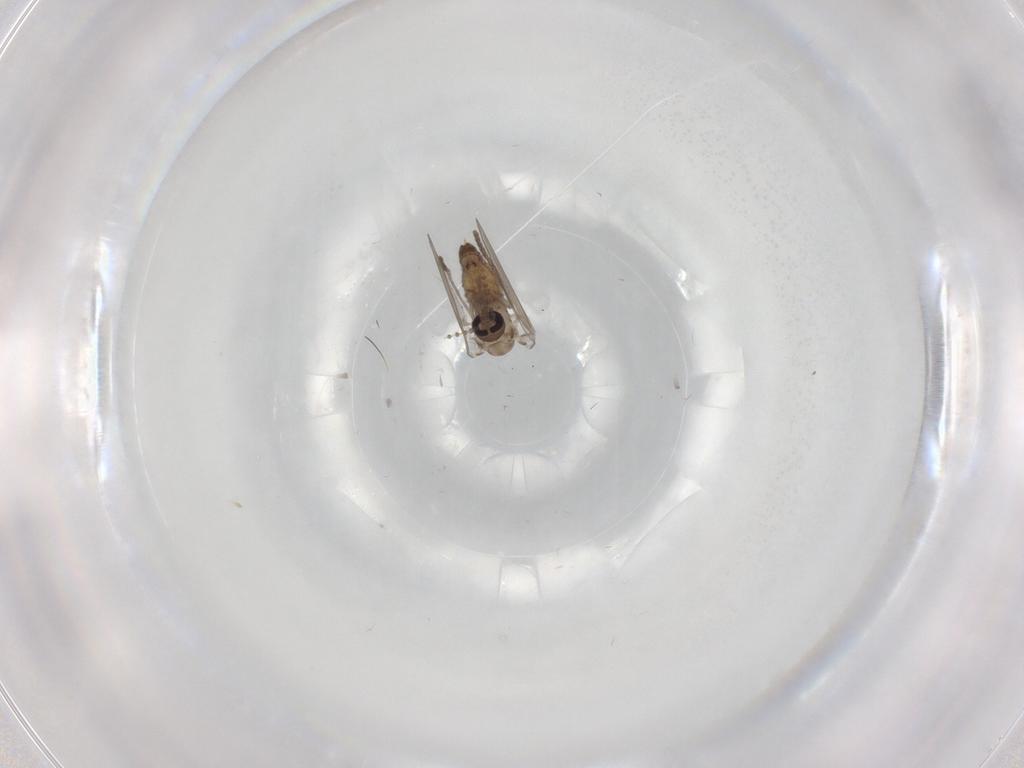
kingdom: Animalia
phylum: Arthropoda
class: Insecta
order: Diptera
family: Psychodidae
